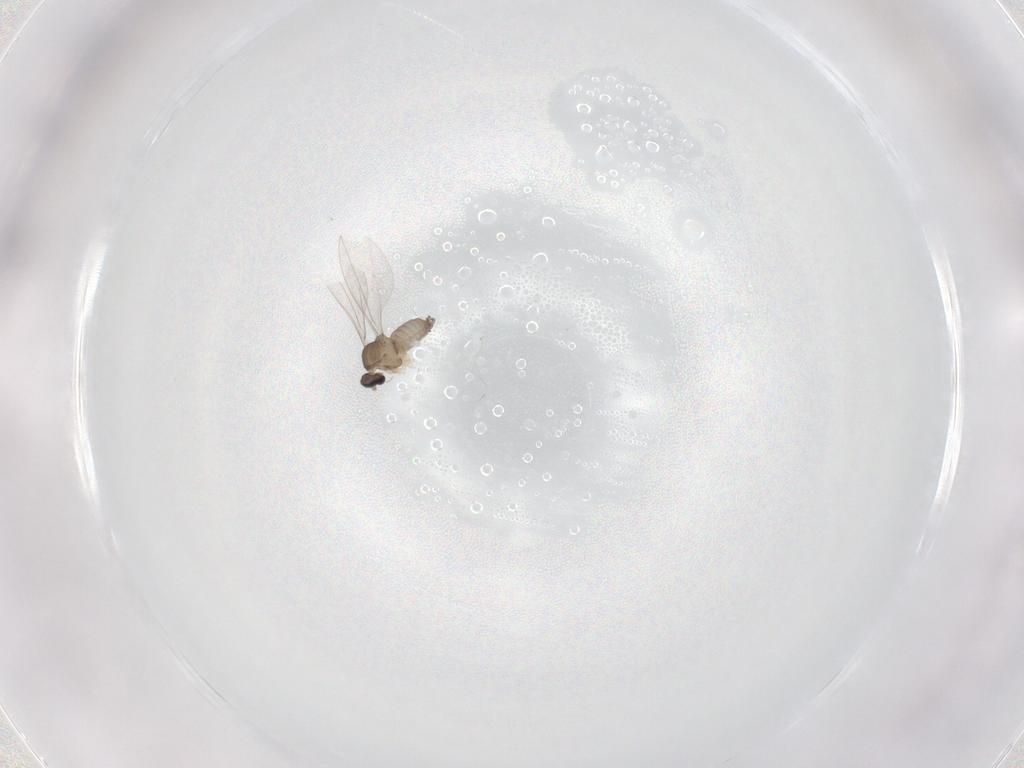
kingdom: Animalia
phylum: Arthropoda
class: Insecta
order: Diptera
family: Cecidomyiidae
